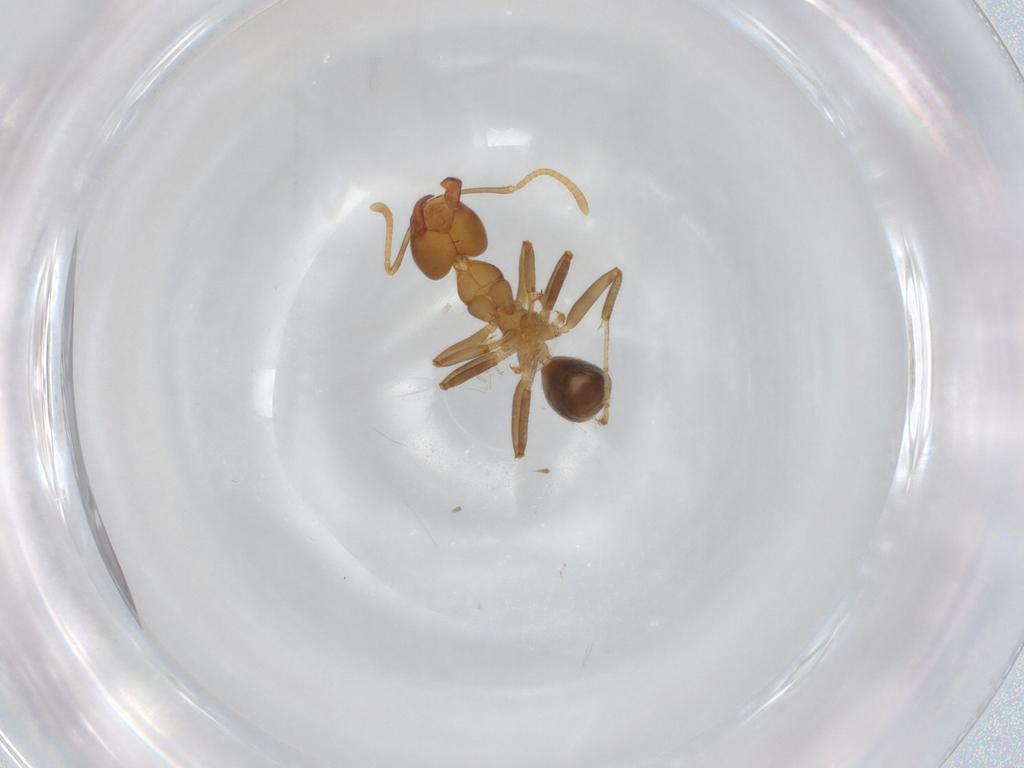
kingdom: Animalia
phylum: Arthropoda
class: Insecta
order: Hymenoptera
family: Formicidae
